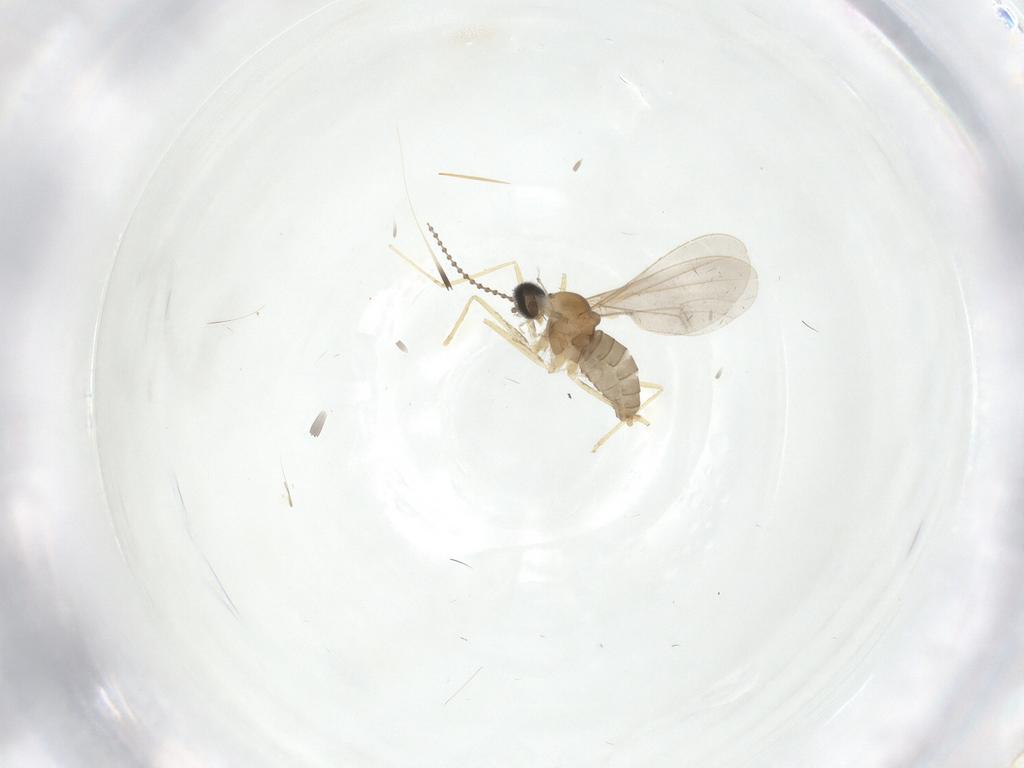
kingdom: Animalia
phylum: Arthropoda
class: Insecta
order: Diptera
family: Cecidomyiidae
